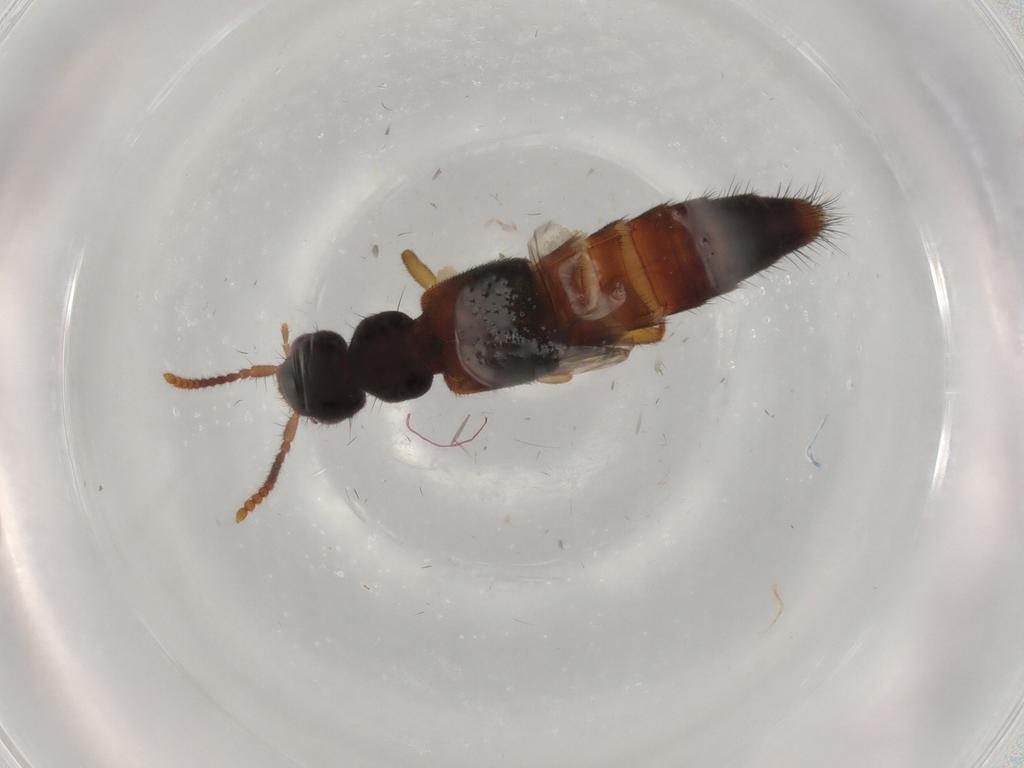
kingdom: Animalia
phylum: Arthropoda
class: Insecta
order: Coleoptera
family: Staphylinidae
